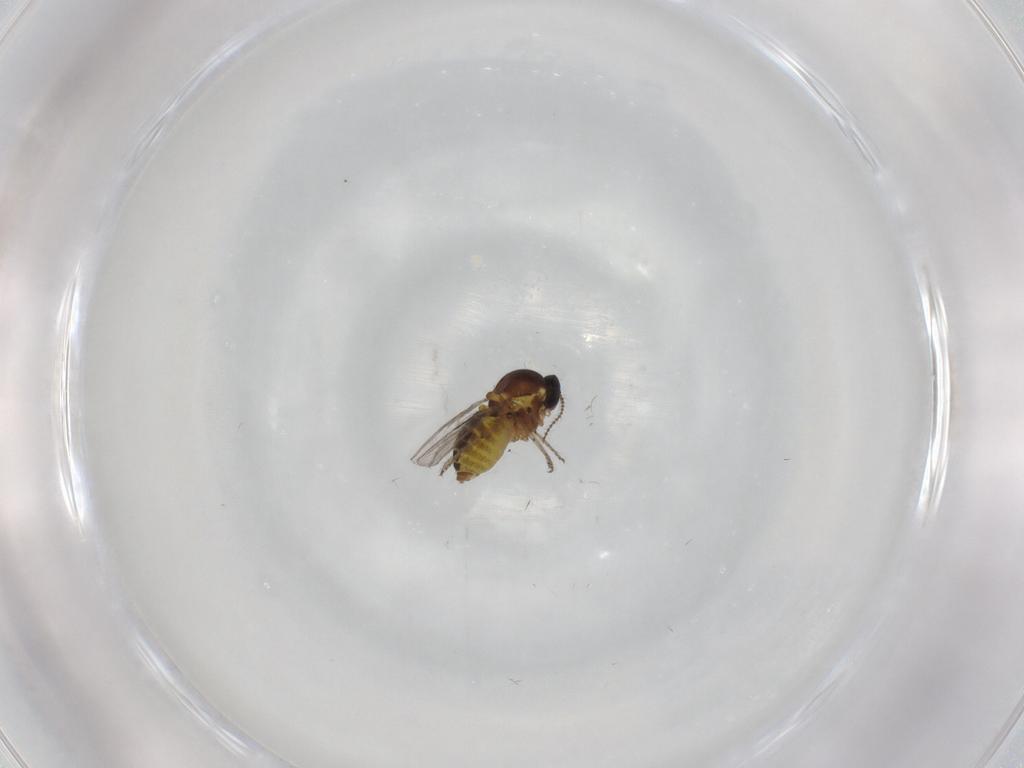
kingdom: Animalia
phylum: Arthropoda
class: Insecta
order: Diptera
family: Ceratopogonidae
